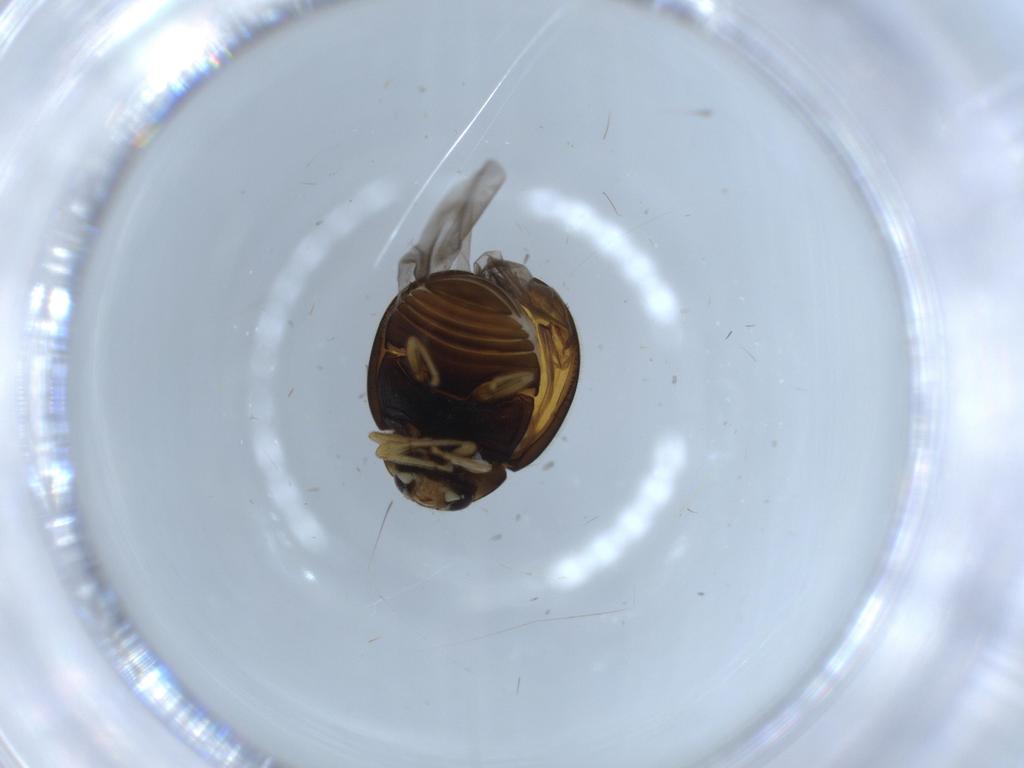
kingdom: Animalia
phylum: Arthropoda
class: Insecta
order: Coleoptera
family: Coccinellidae
